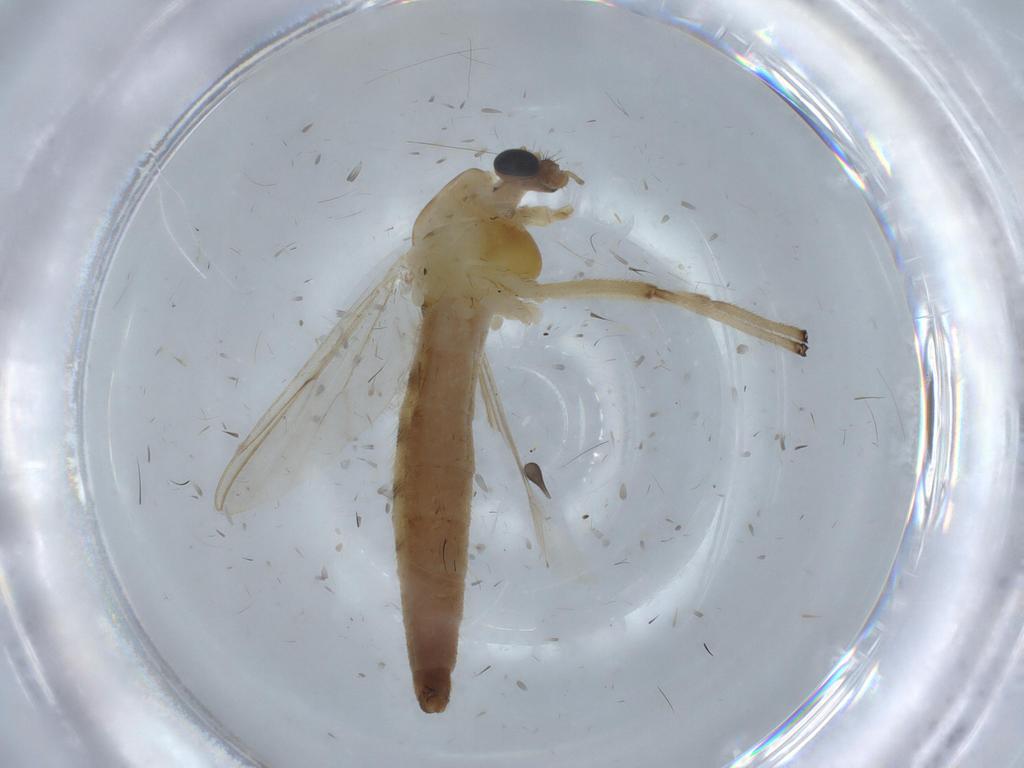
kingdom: Animalia
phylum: Arthropoda
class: Insecta
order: Diptera
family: Chironomidae
